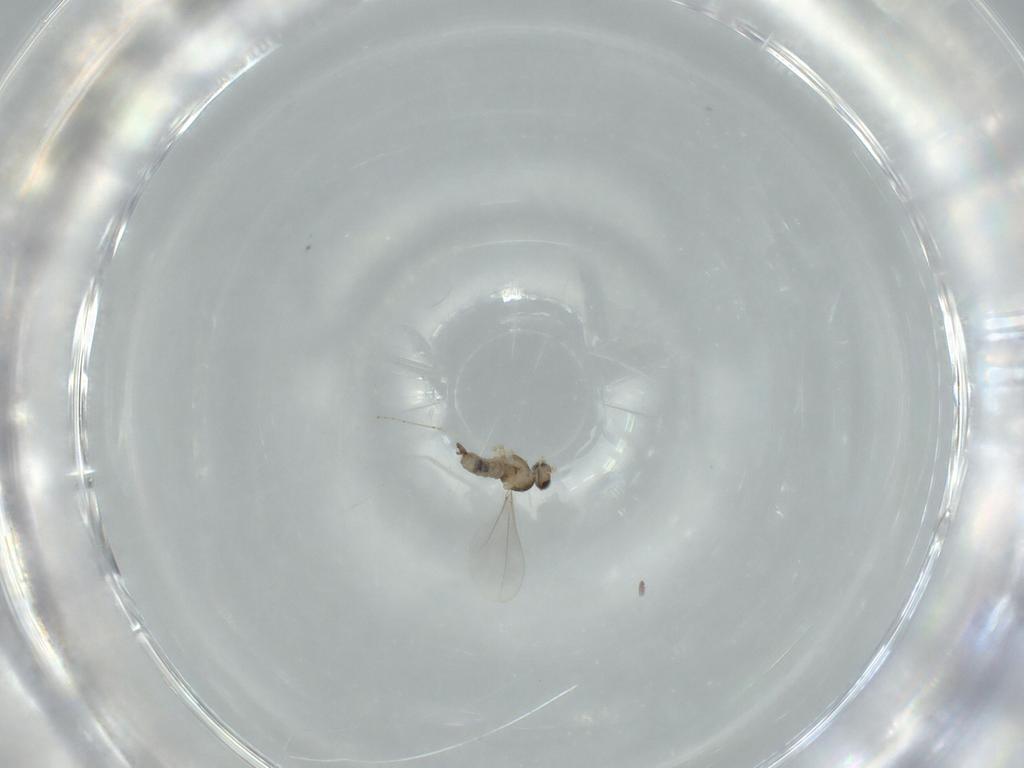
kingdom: Animalia
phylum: Arthropoda
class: Insecta
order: Diptera
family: Cecidomyiidae
